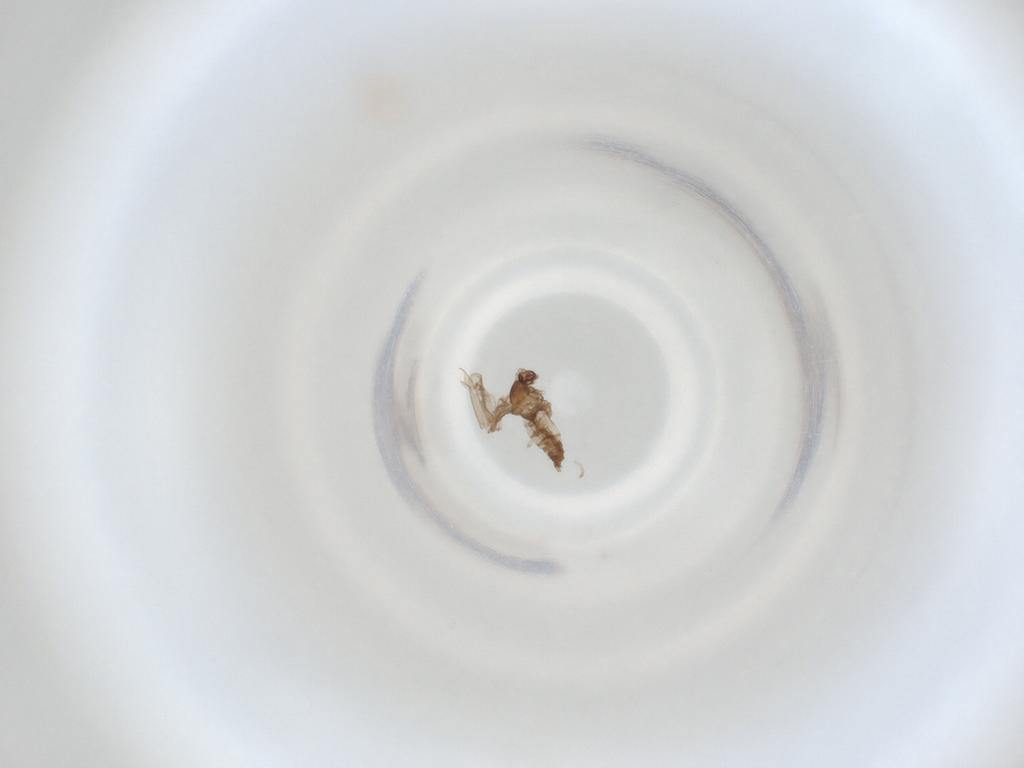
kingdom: Animalia
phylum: Arthropoda
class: Insecta
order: Diptera
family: Cecidomyiidae
